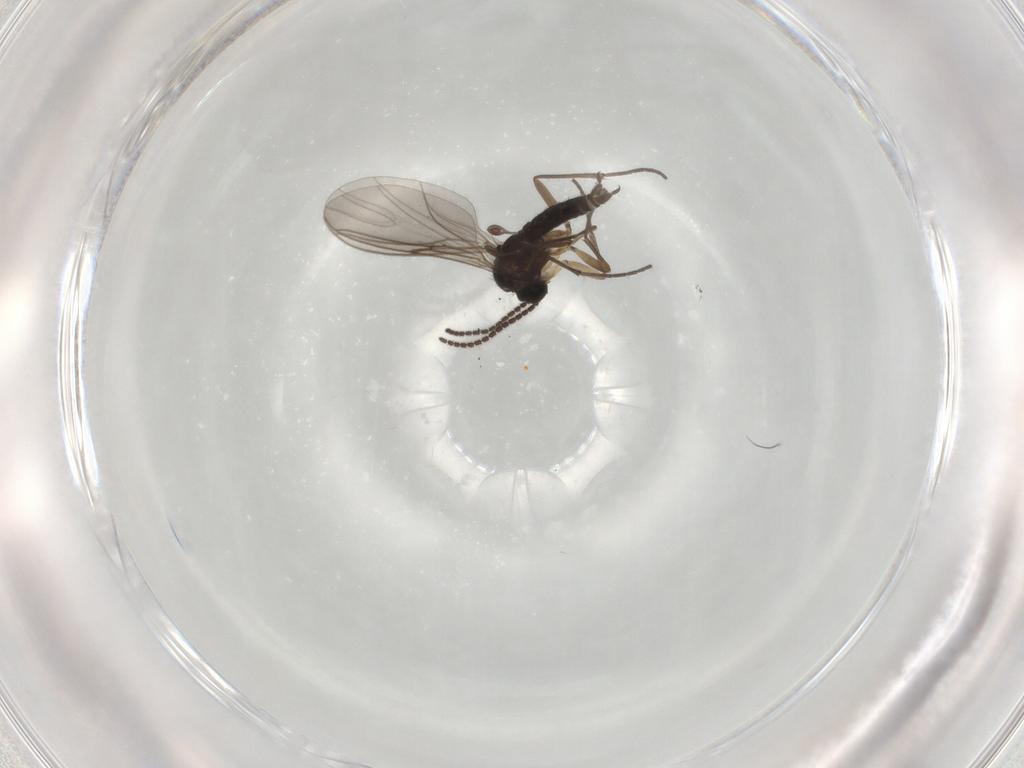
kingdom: Animalia
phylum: Arthropoda
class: Insecta
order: Diptera
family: Sciaridae
